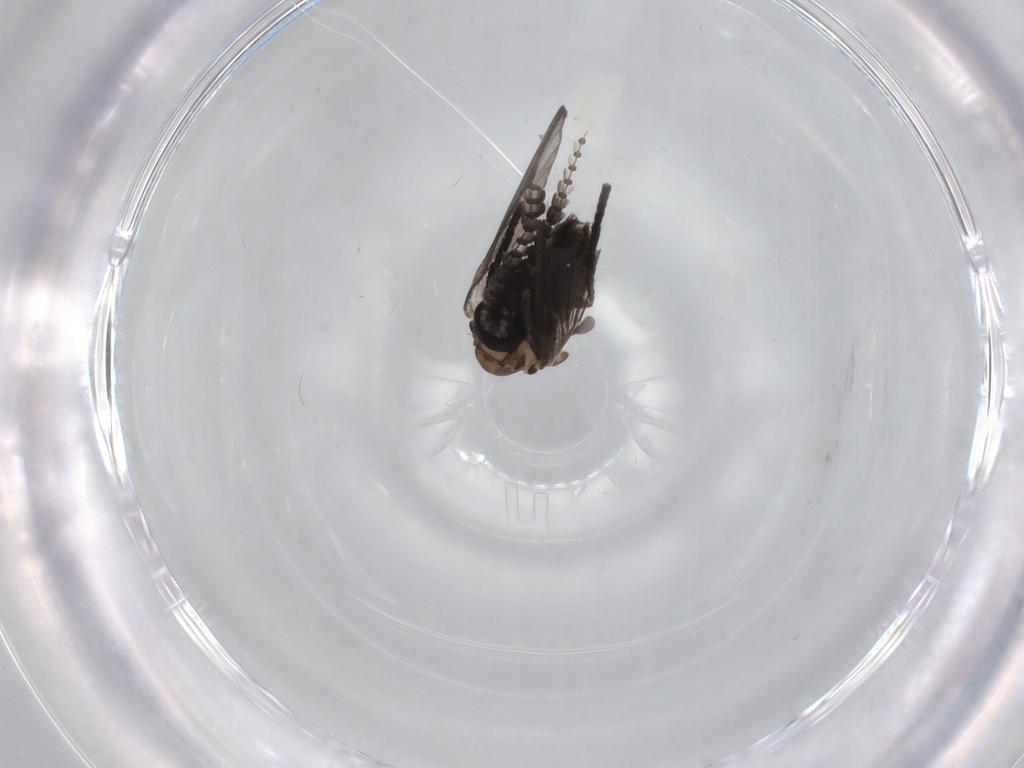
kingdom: Animalia
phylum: Arthropoda
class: Insecta
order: Diptera
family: Psychodidae
